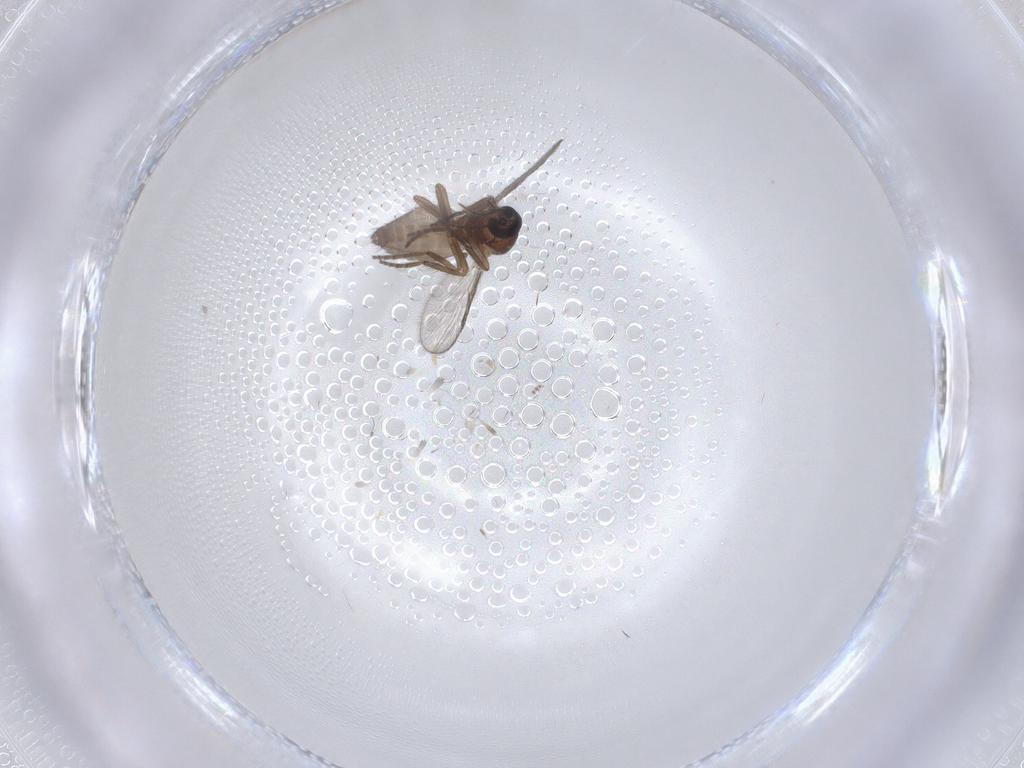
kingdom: Animalia
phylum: Arthropoda
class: Insecta
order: Diptera
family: Psychodidae
